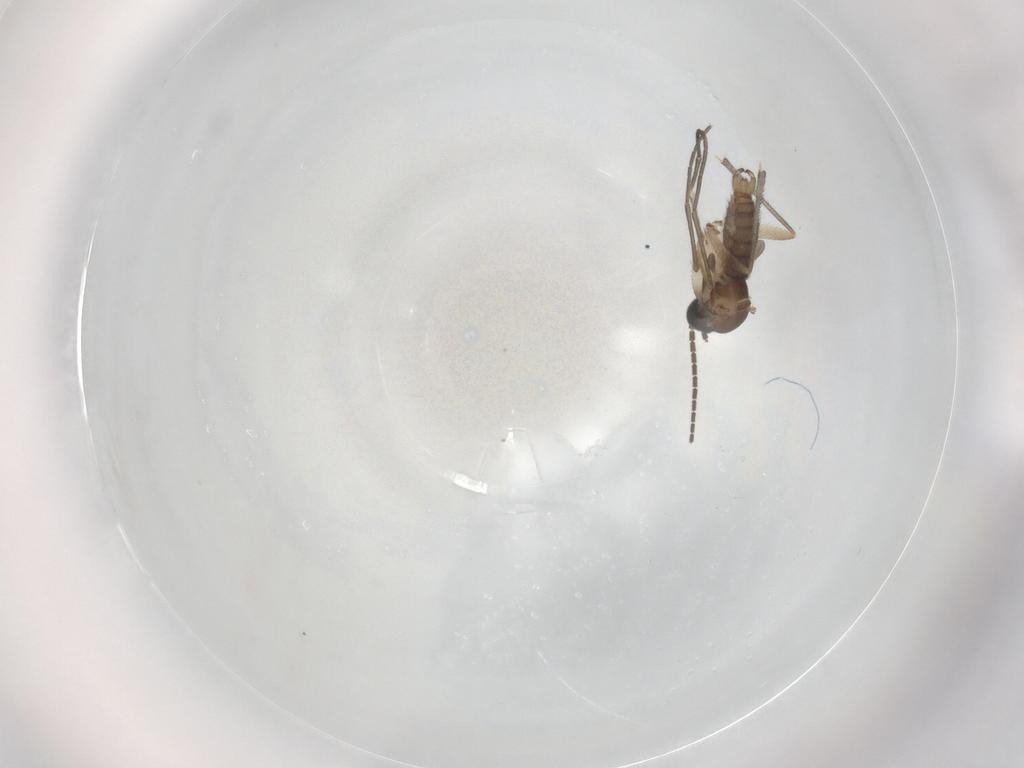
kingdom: Animalia
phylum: Arthropoda
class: Insecta
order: Diptera
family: Sciaridae
